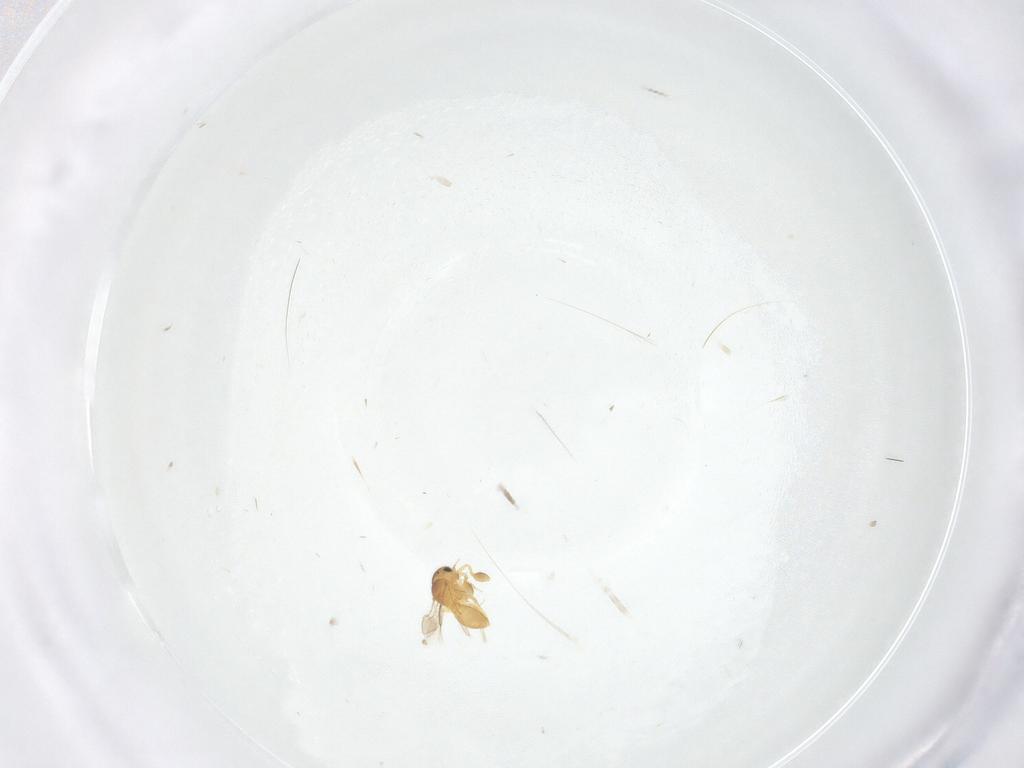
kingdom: Animalia
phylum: Arthropoda
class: Insecta
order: Hymenoptera
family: Scelionidae
